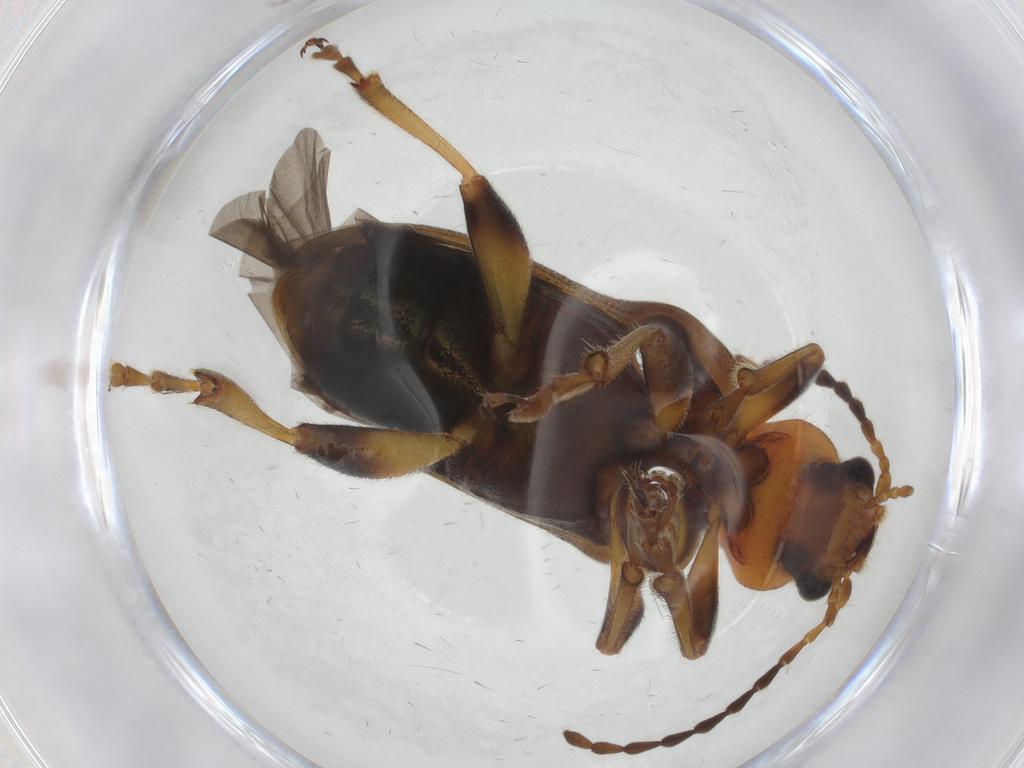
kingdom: Animalia
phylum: Arthropoda
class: Insecta
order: Coleoptera
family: Orsodacnidae
